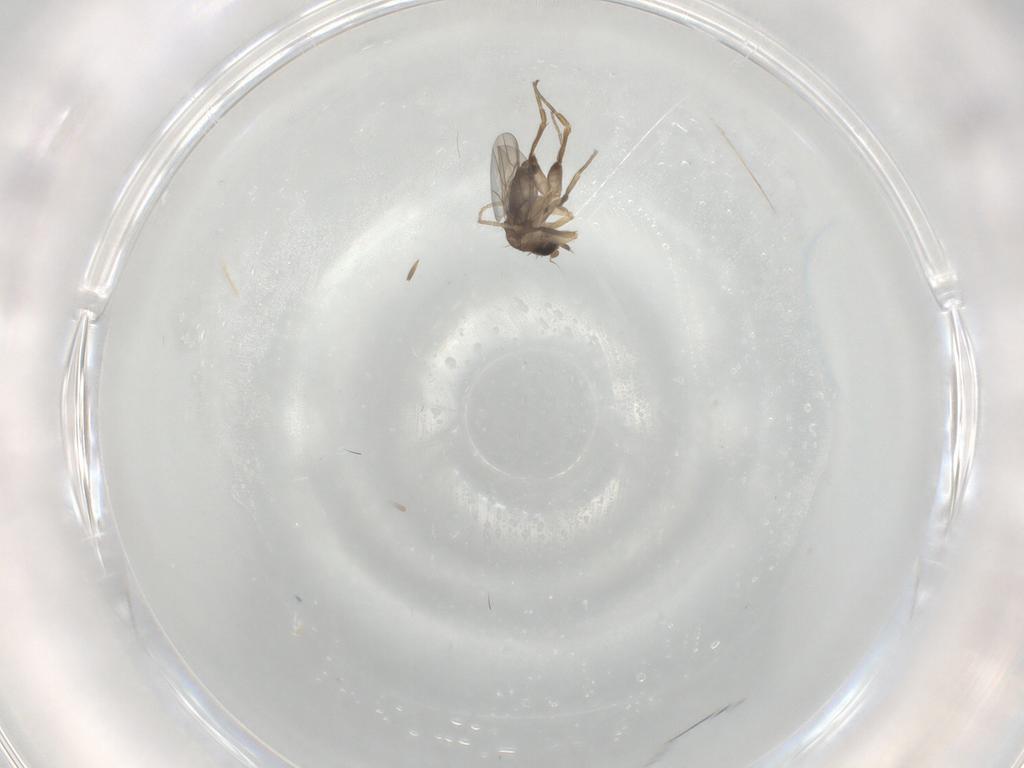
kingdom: Animalia
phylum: Arthropoda
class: Insecta
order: Diptera
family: Phoridae
